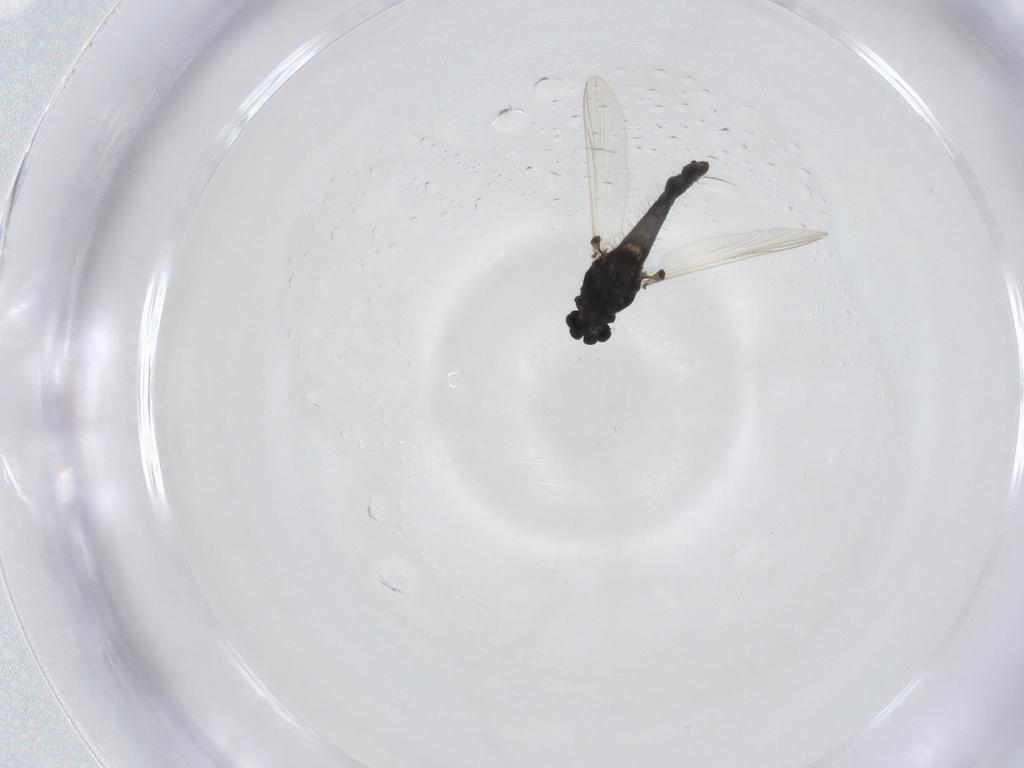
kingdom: Animalia
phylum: Arthropoda
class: Insecta
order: Diptera
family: Chironomidae
